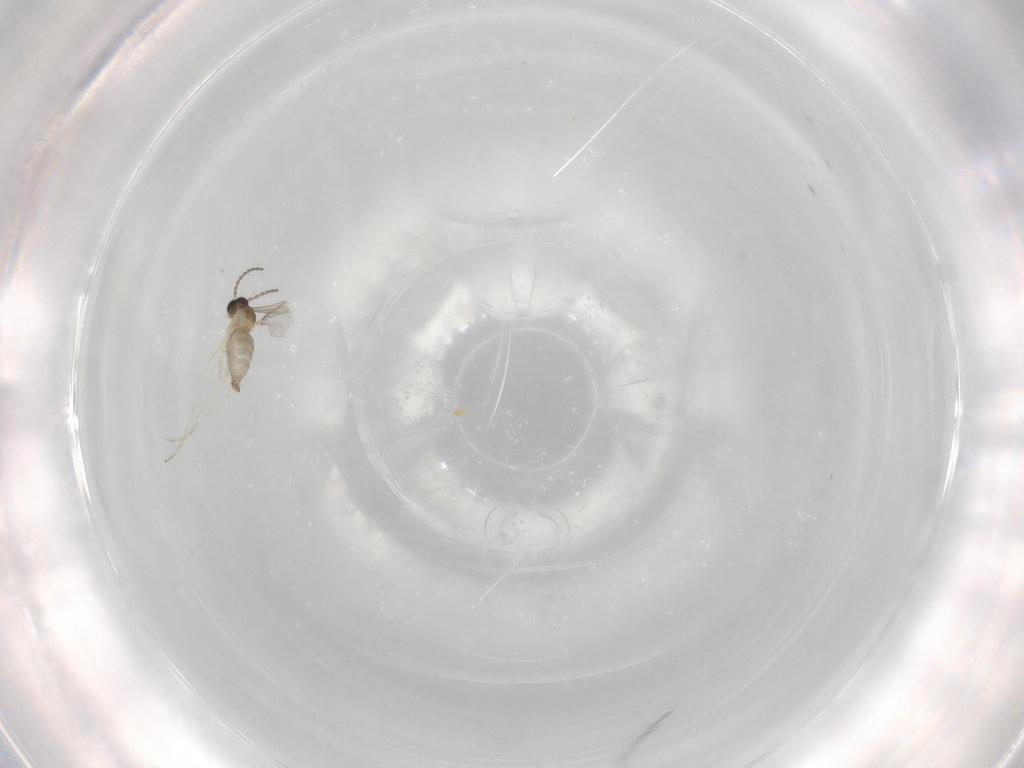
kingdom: Animalia
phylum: Arthropoda
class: Insecta
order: Diptera
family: Cecidomyiidae
